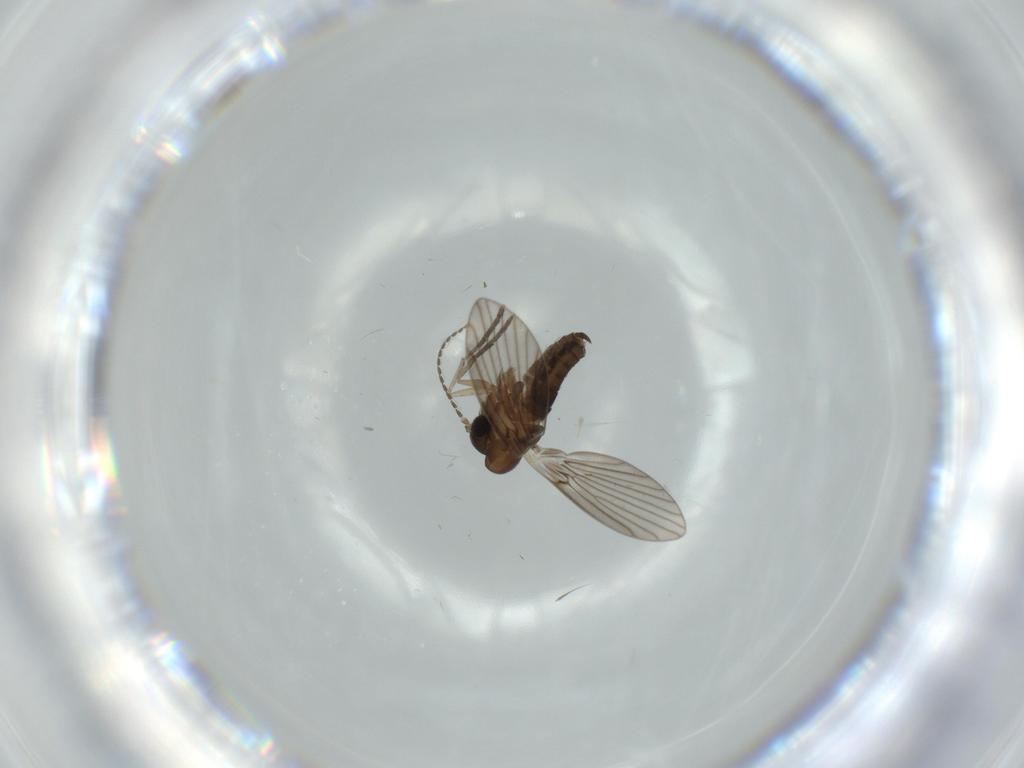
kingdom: Animalia
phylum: Arthropoda
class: Insecta
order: Diptera
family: Psychodidae
